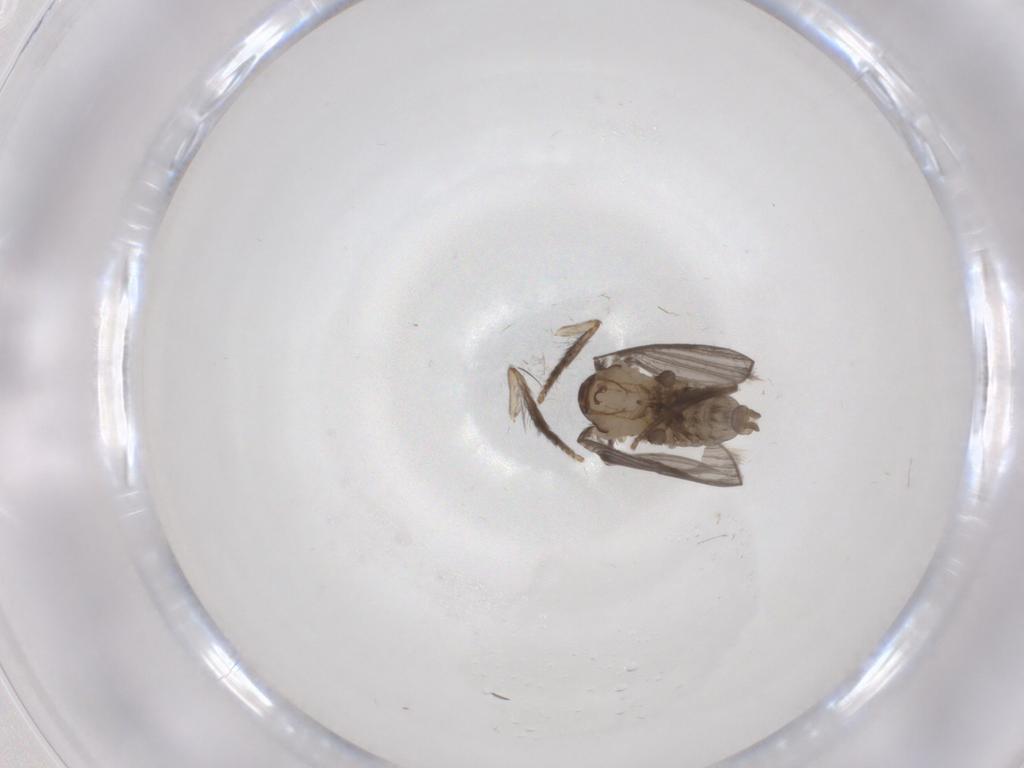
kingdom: Animalia
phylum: Arthropoda
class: Insecta
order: Diptera
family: Psychodidae
